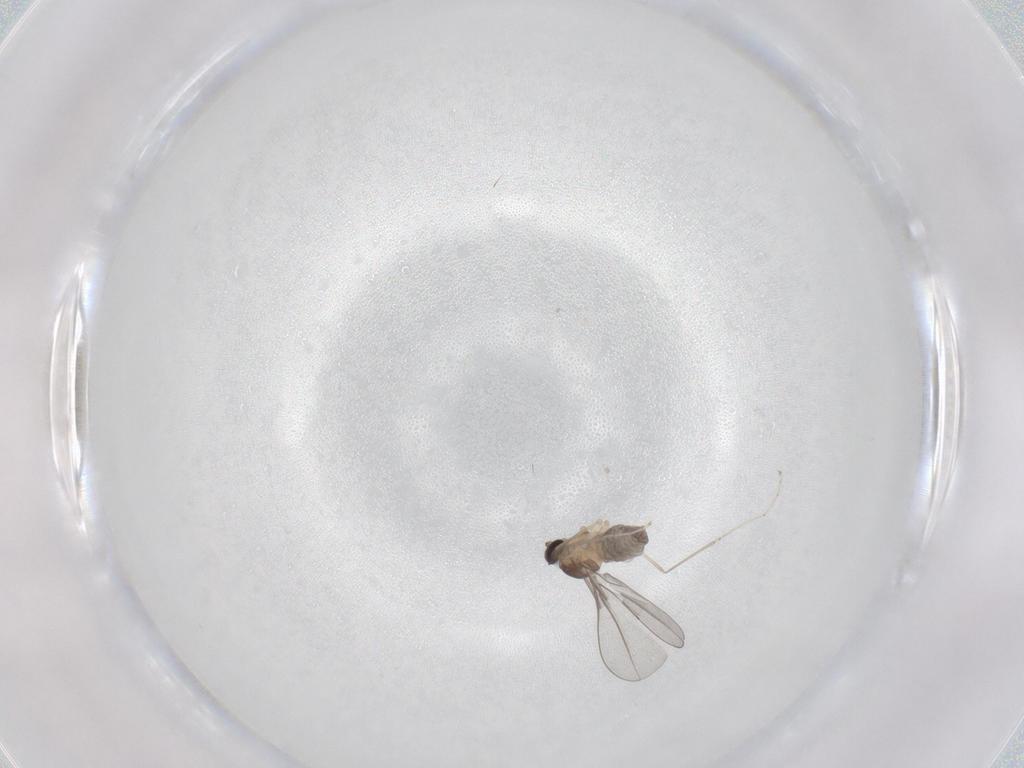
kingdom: Animalia
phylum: Arthropoda
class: Insecta
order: Diptera
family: Cecidomyiidae
